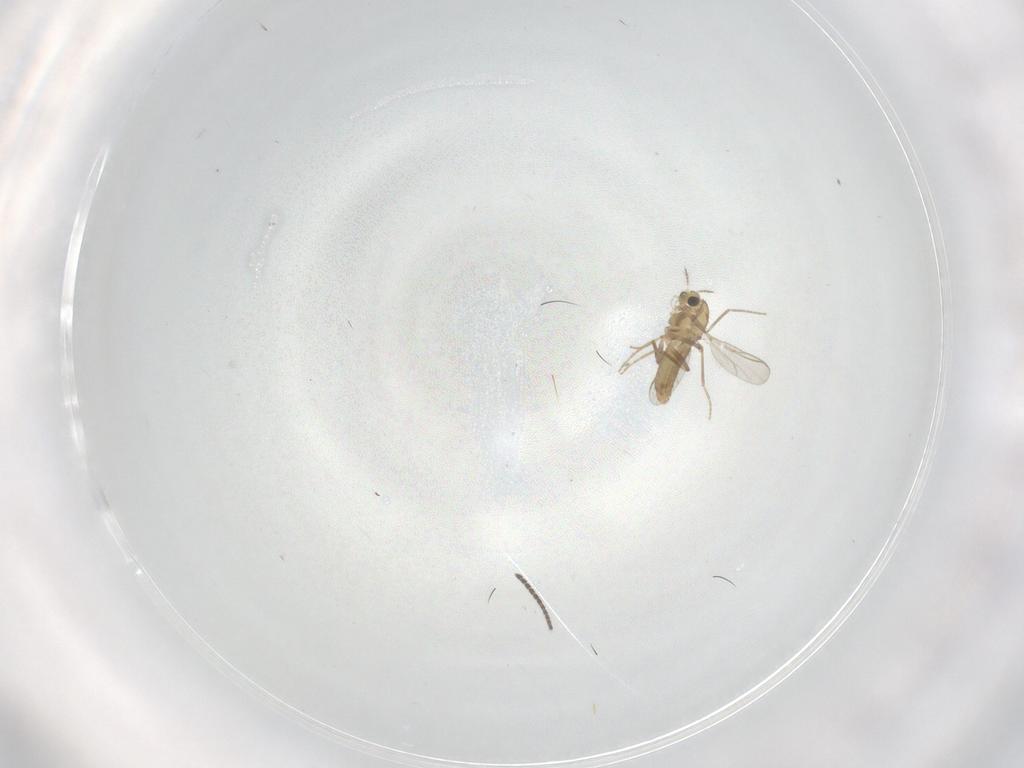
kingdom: Animalia
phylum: Arthropoda
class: Insecta
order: Diptera
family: Chironomidae
